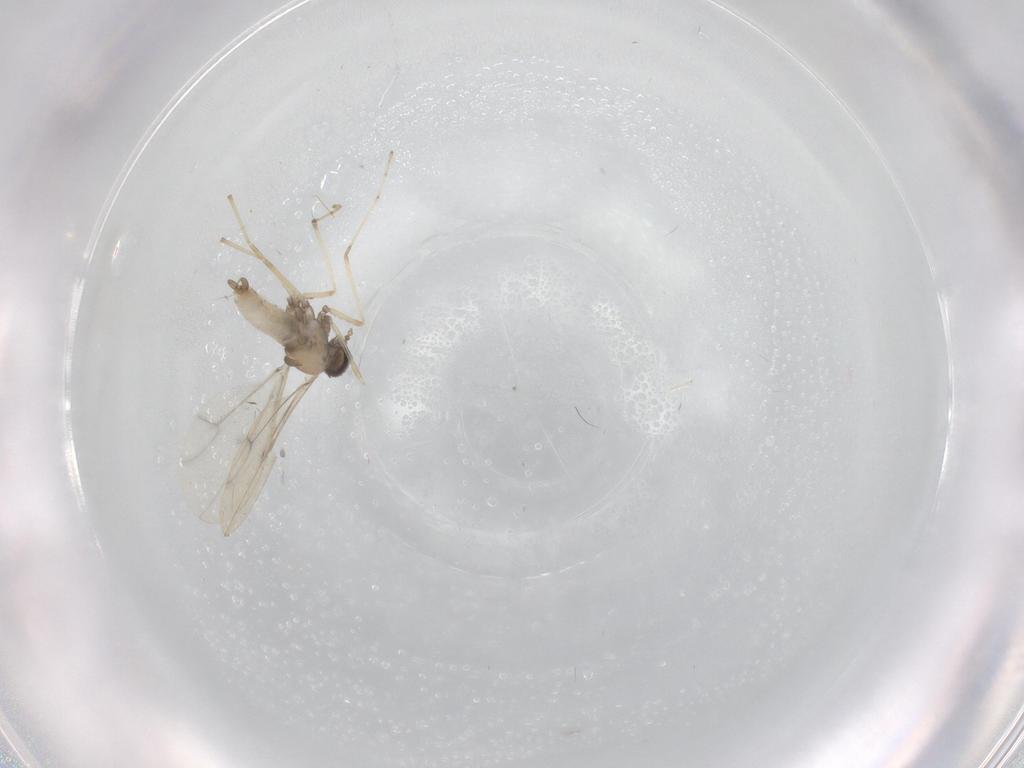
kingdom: Animalia
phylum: Arthropoda
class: Insecta
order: Diptera
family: Cecidomyiidae
